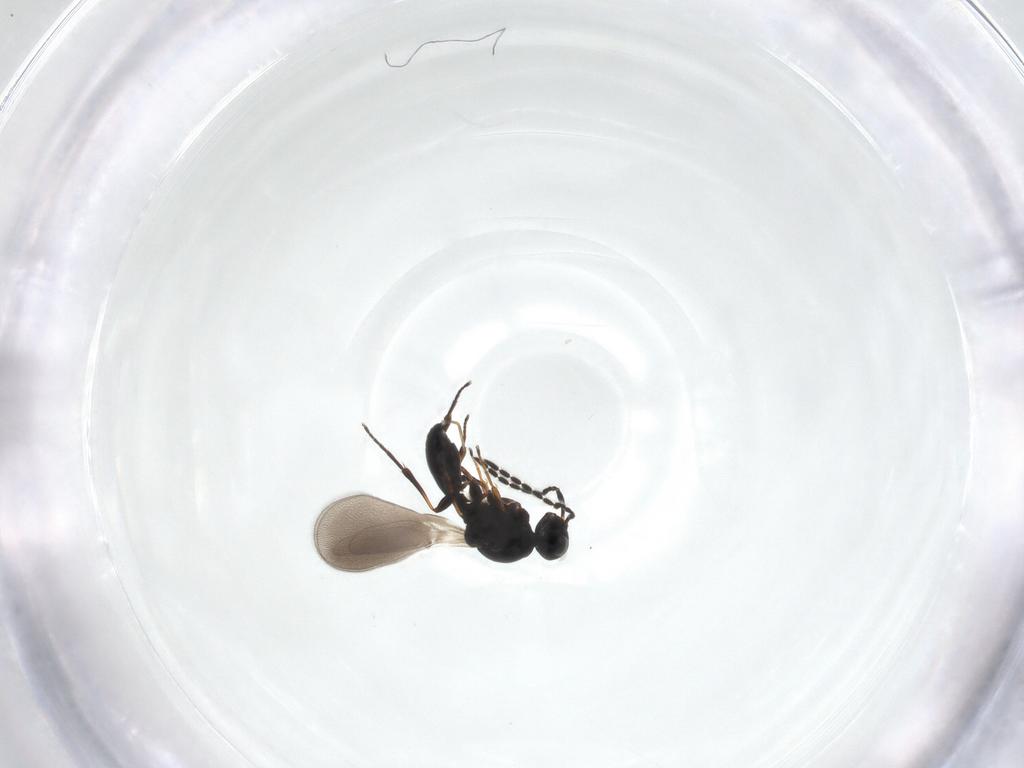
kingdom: Animalia
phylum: Arthropoda
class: Insecta
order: Hymenoptera
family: Platygastridae
